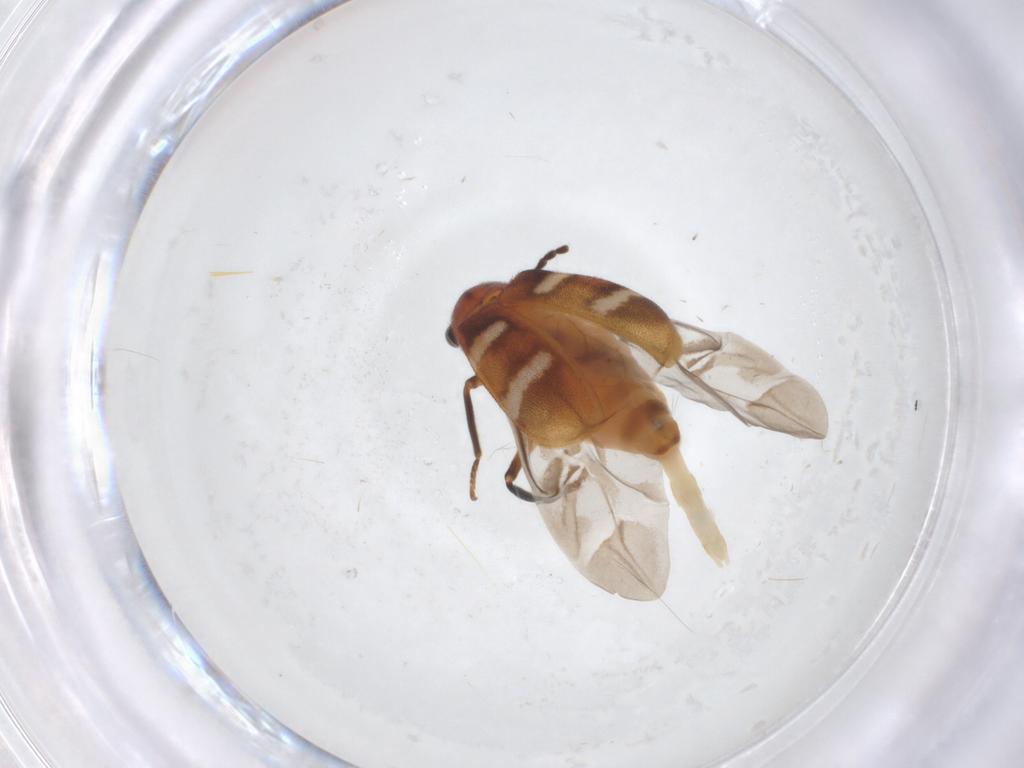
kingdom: Animalia
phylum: Arthropoda
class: Insecta
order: Coleoptera
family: Melyridae
